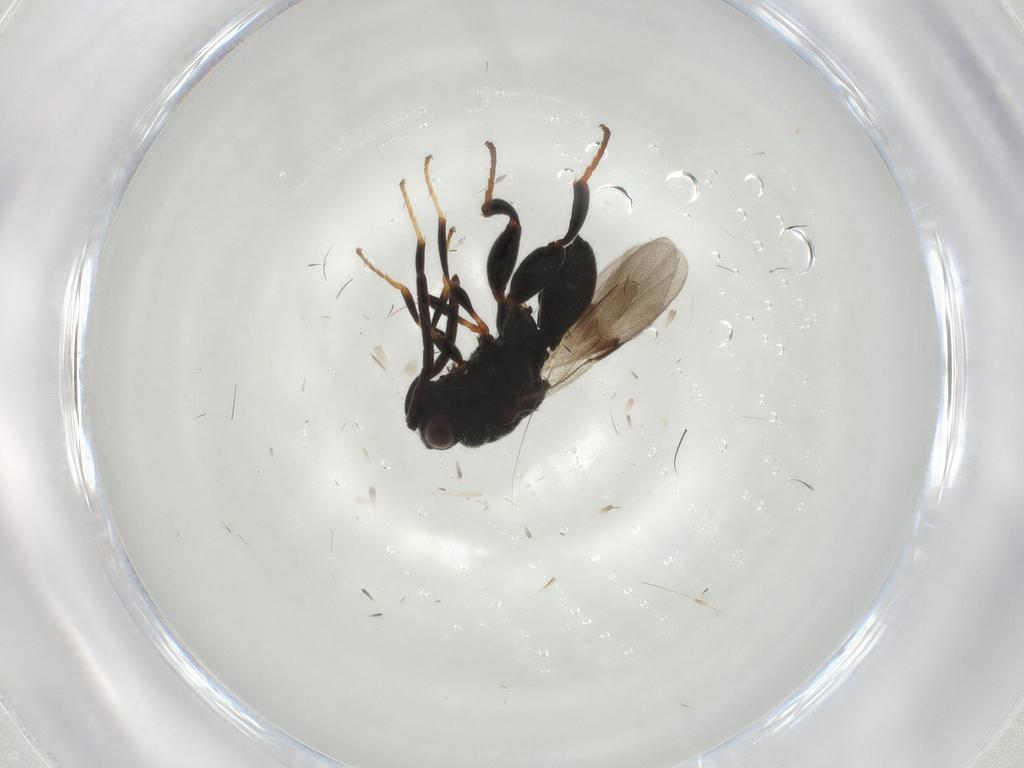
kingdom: Animalia
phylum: Arthropoda
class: Insecta
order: Hymenoptera
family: Chalcididae
